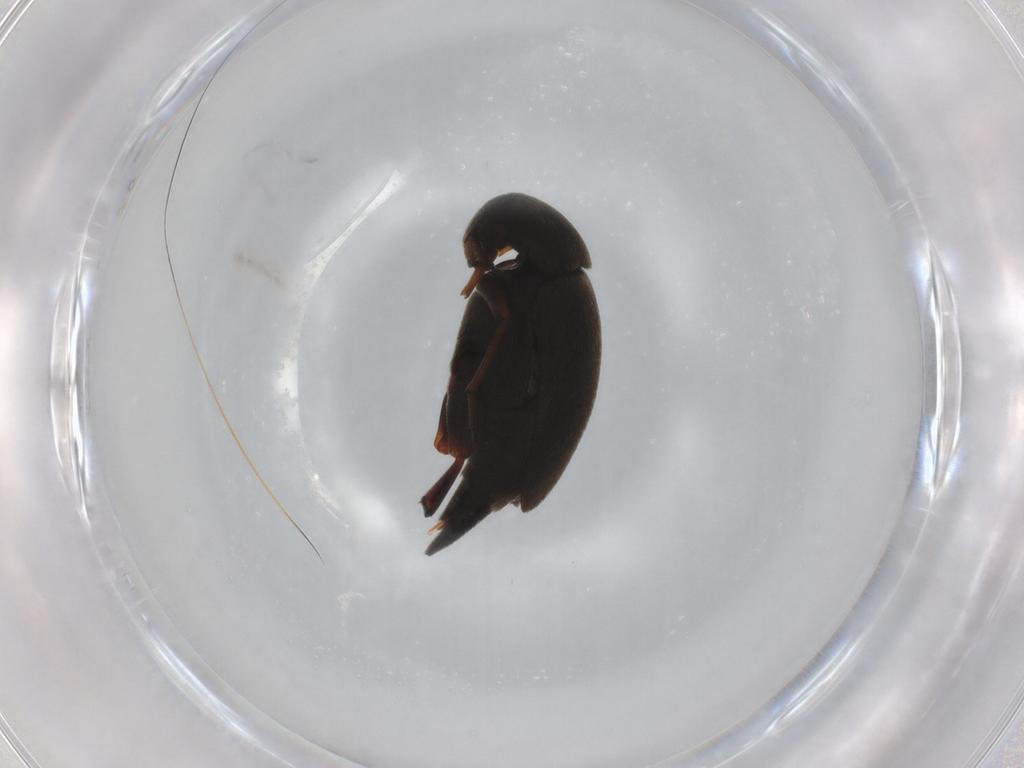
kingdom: Animalia
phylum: Arthropoda
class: Insecta
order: Coleoptera
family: Mordellidae
